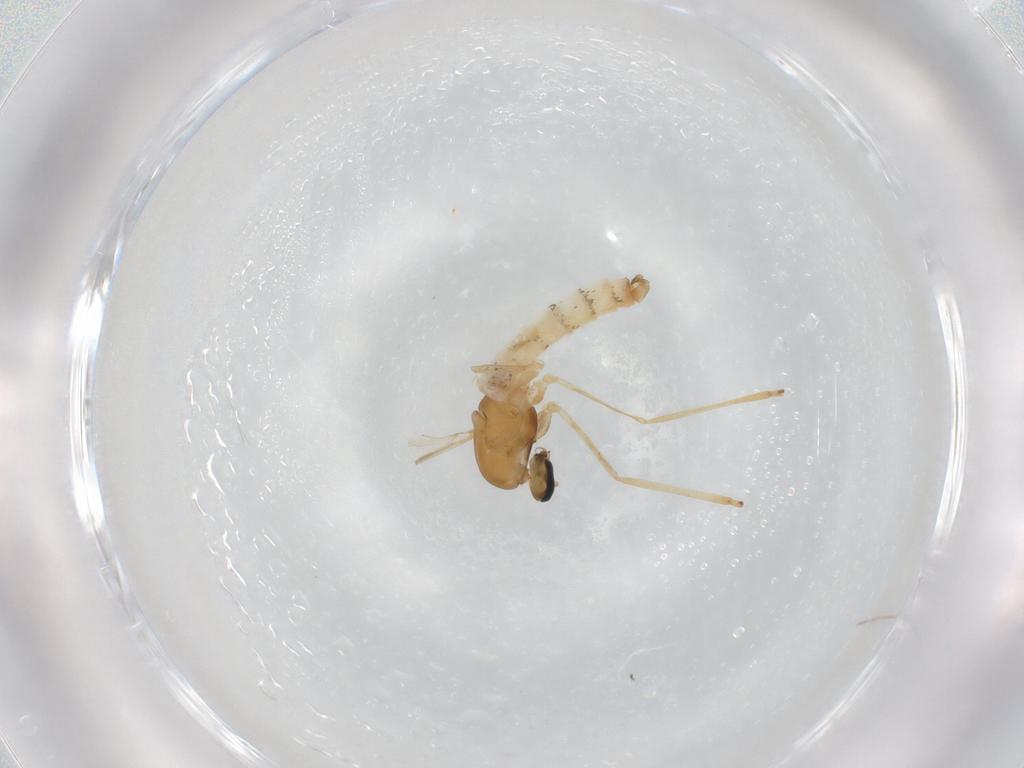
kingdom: Animalia
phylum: Arthropoda
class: Insecta
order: Diptera
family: Cecidomyiidae
